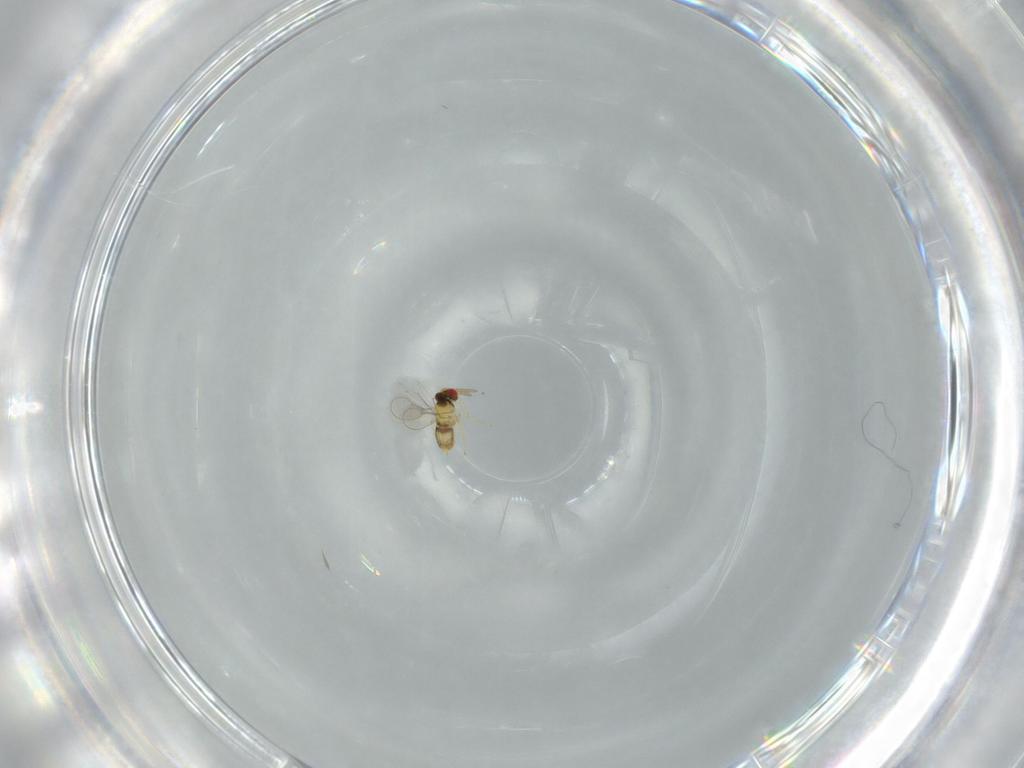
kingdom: Animalia
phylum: Arthropoda
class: Insecta
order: Hymenoptera
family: Aphelinidae
